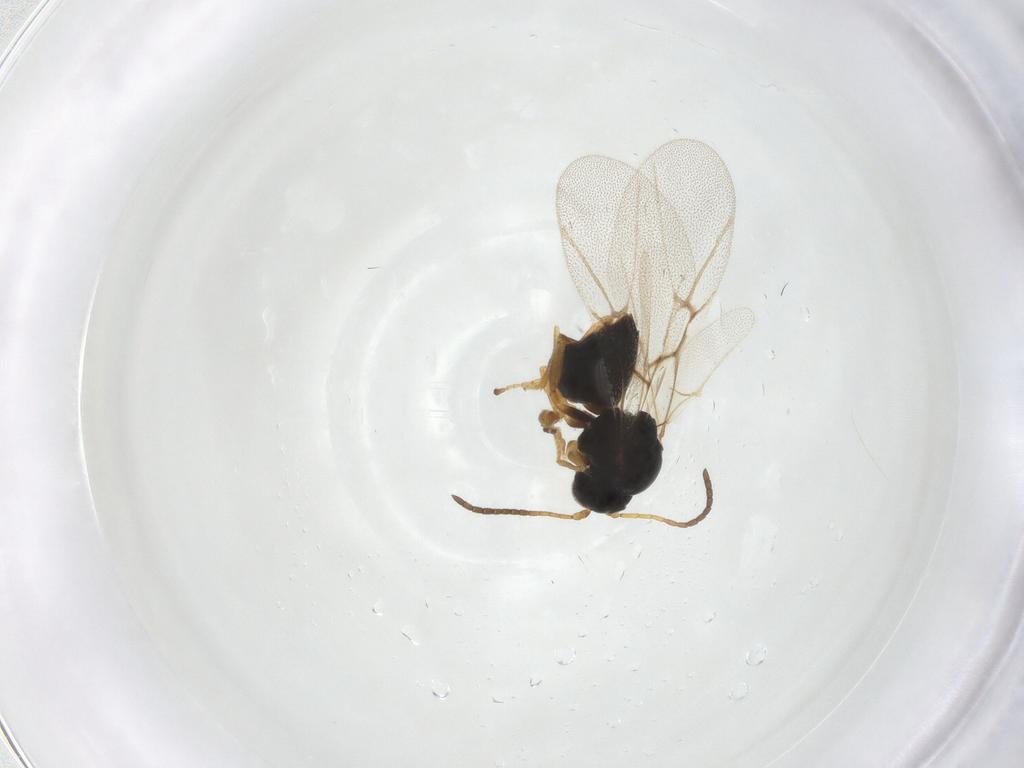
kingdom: Animalia
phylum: Arthropoda
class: Insecta
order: Hymenoptera
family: Cynipidae
